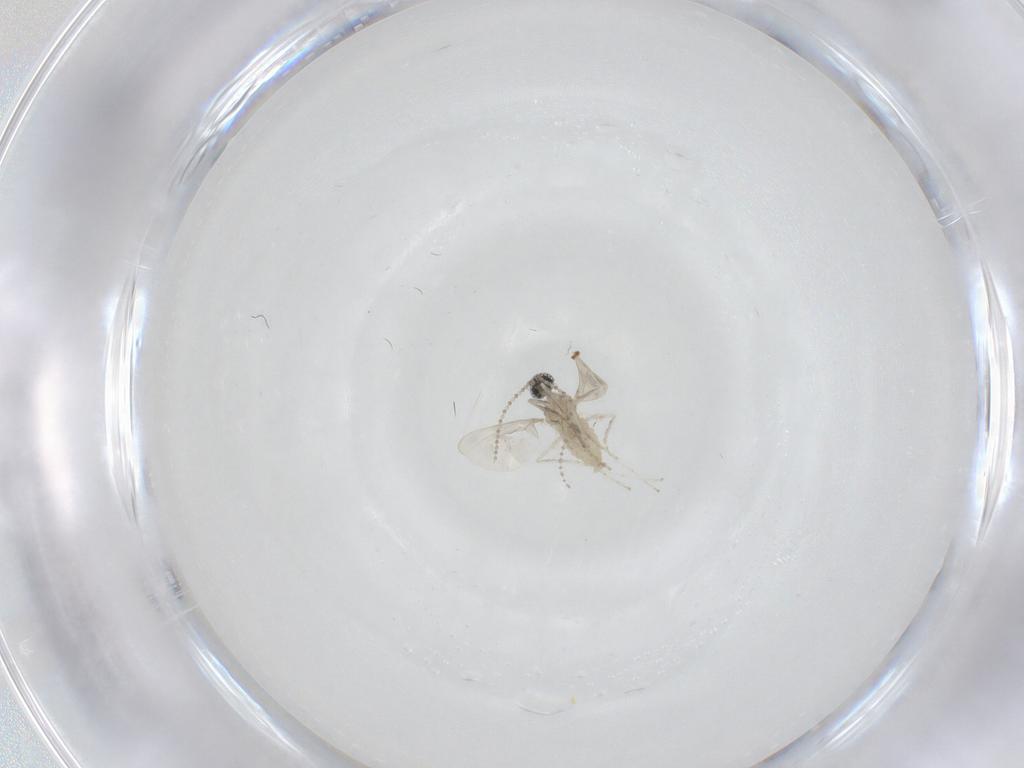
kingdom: Animalia
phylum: Arthropoda
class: Insecta
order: Diptera
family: Cecidomyiidae
